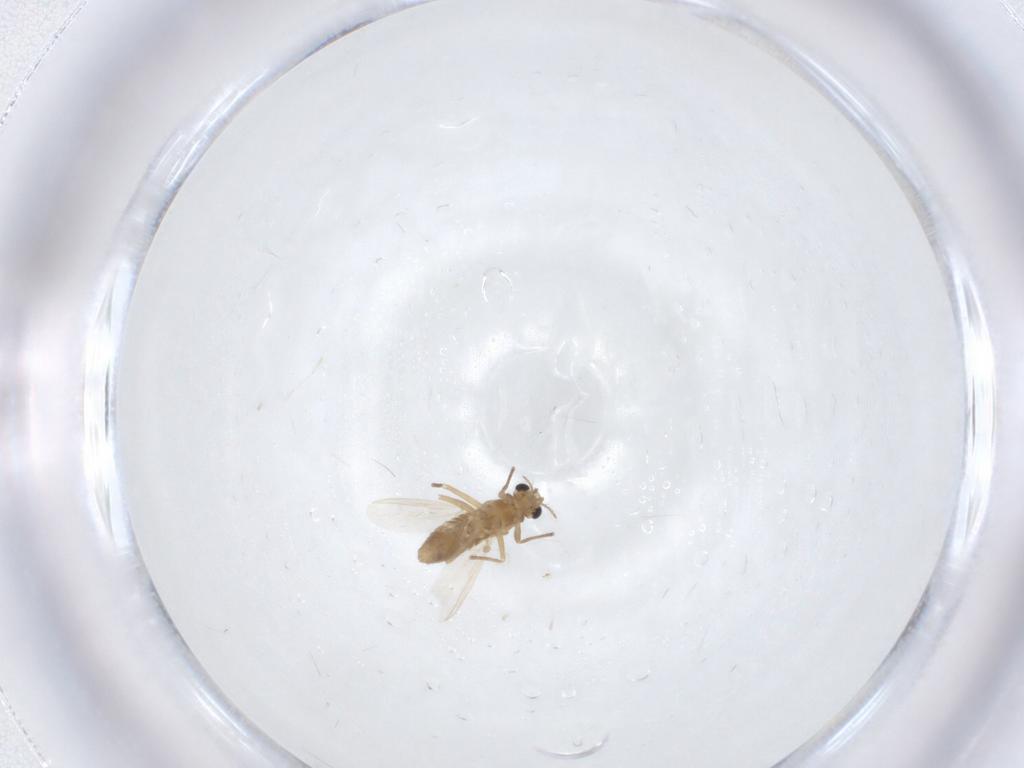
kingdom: Animalia
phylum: Arthropoda
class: Insecta
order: Diptera
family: Chironomidae
